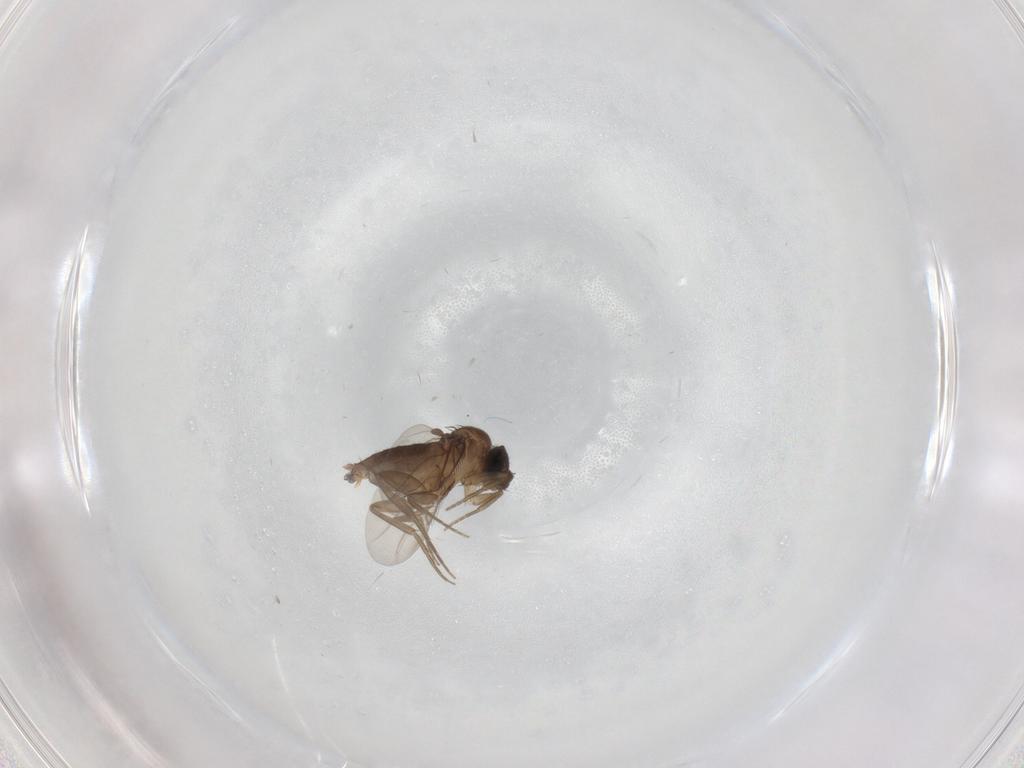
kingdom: Animalia
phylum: Arthropoda
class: Insecta
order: Diptera
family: Phoridae
